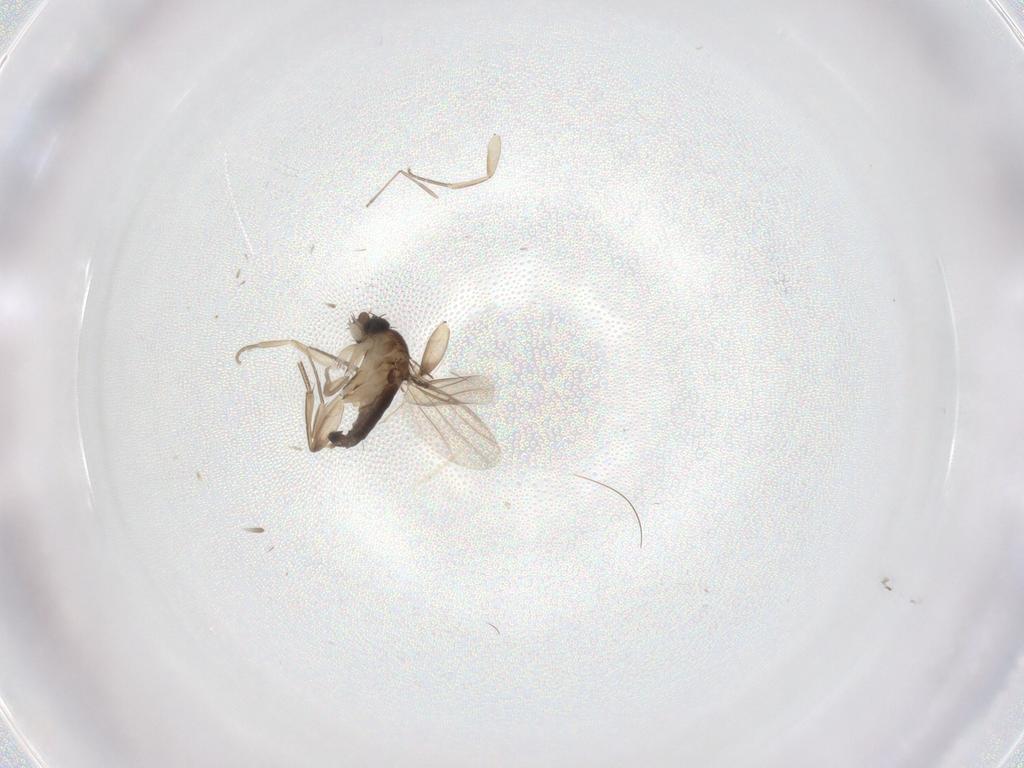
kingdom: Animalia
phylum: Arthropoda
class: Insecta
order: Diptera
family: Phoridae
